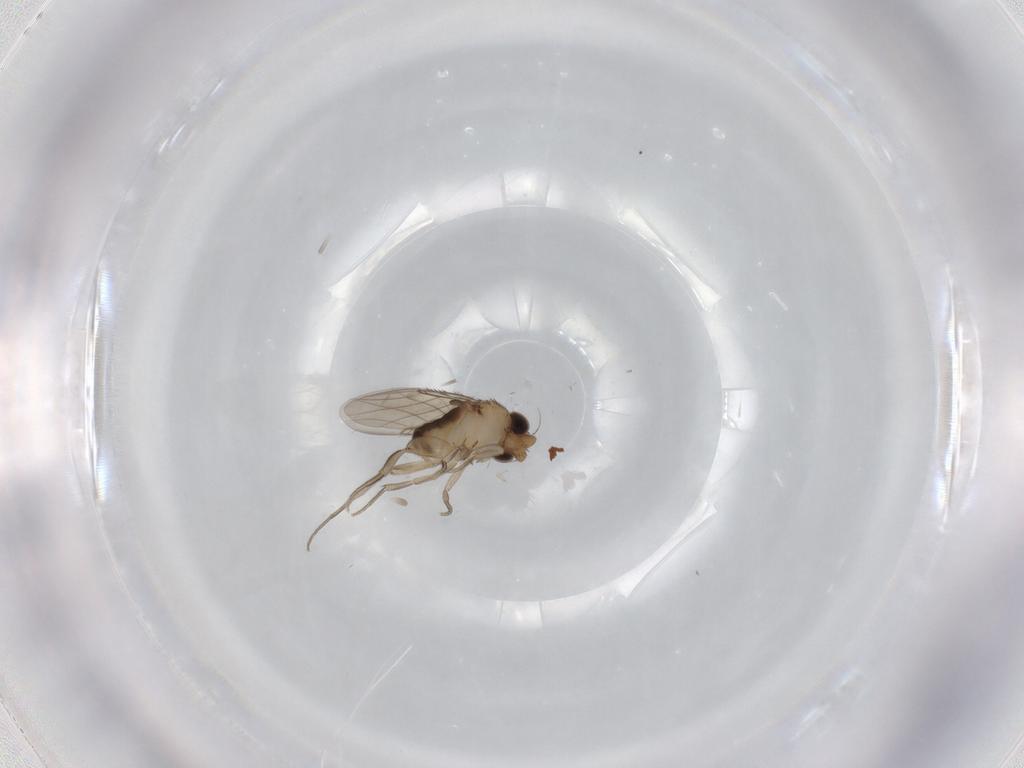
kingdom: Animalia
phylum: Arthropoda
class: Insecta
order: Diptera
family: Phoridae
